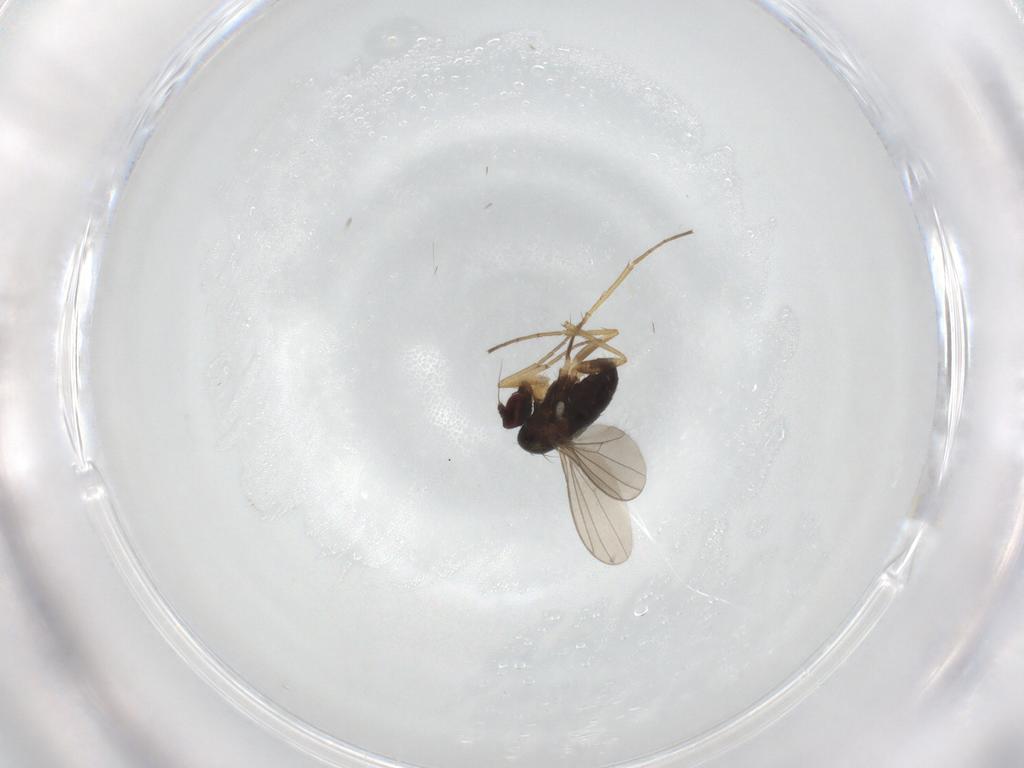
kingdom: Animalia
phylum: Arthropoda
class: Insecta
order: Diptera
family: Dolichopodidae
